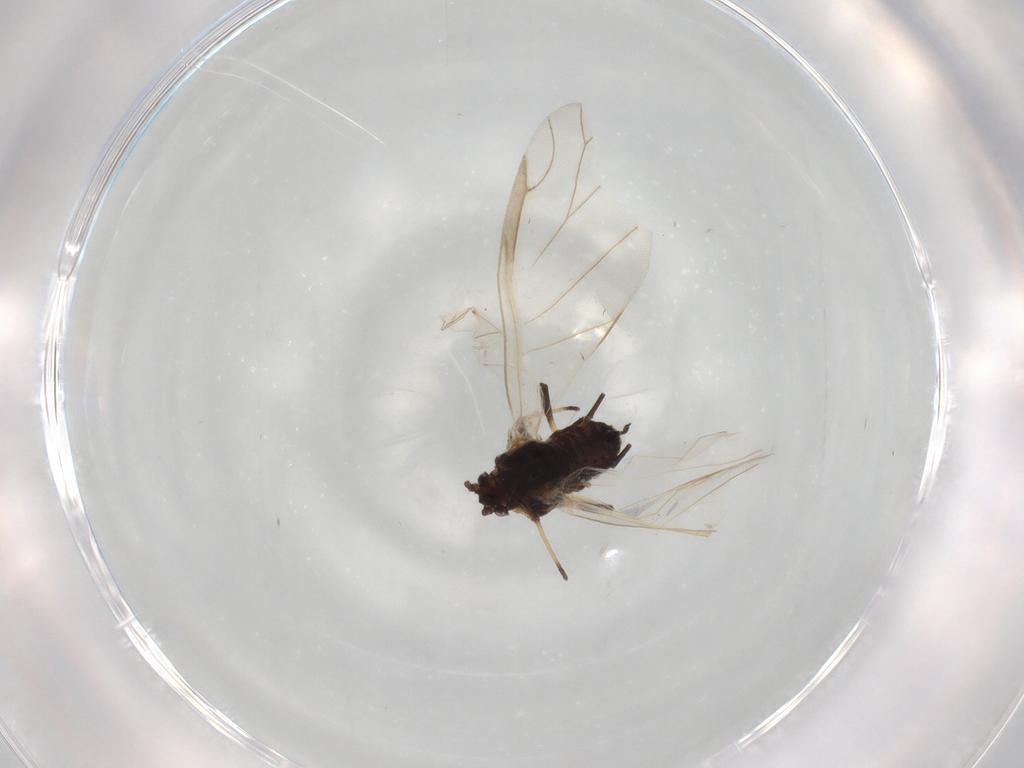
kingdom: Animalia
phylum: Arthropoda
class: Insecta
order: Hemiptera
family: Aphididae
